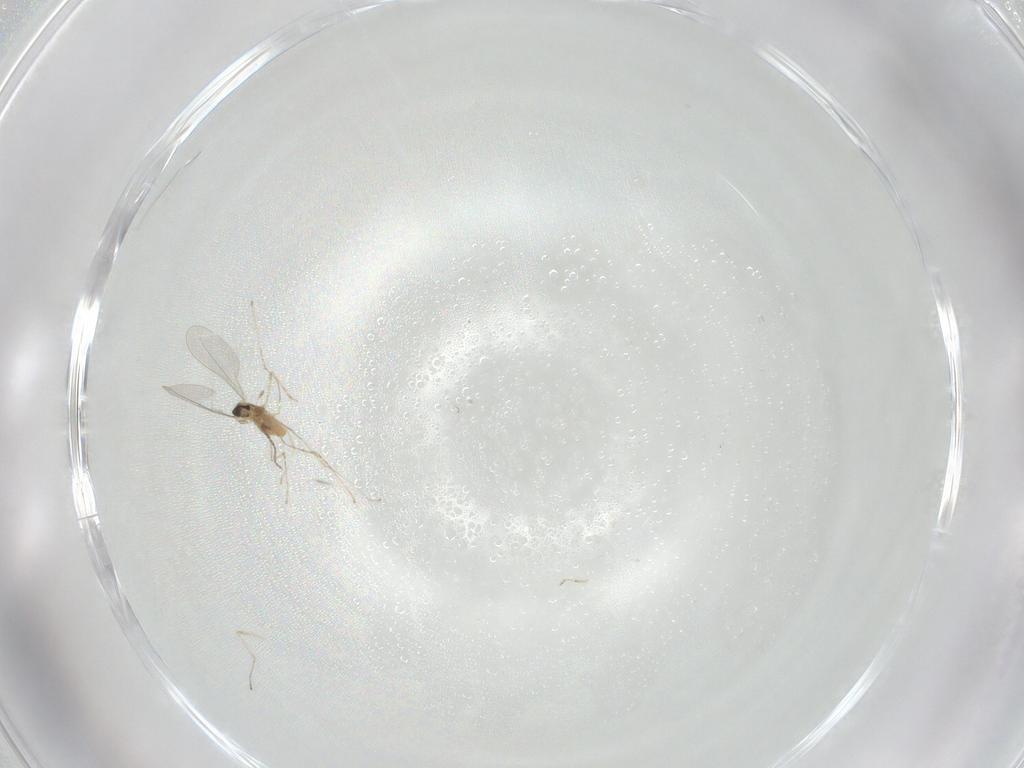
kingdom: Animalia
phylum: Arthropoda
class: Insecta
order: Diptera
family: Cecidomyiidae
